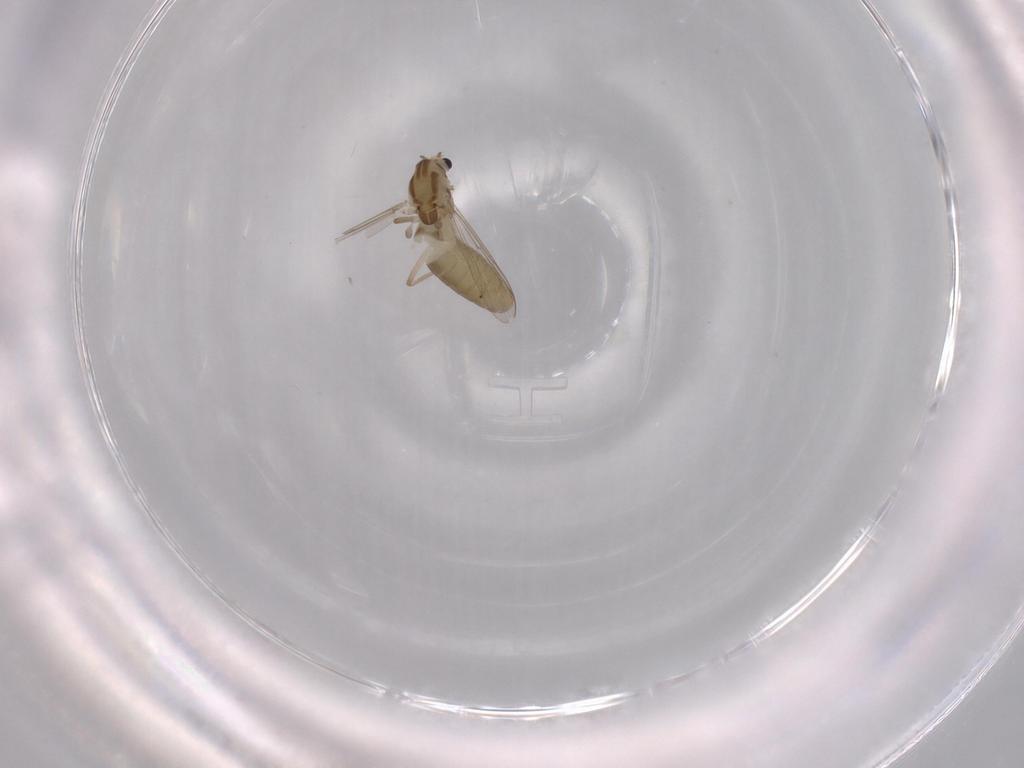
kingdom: Animalia
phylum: Arthropoda
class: Insecta
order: Diptera
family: Chironomidae
